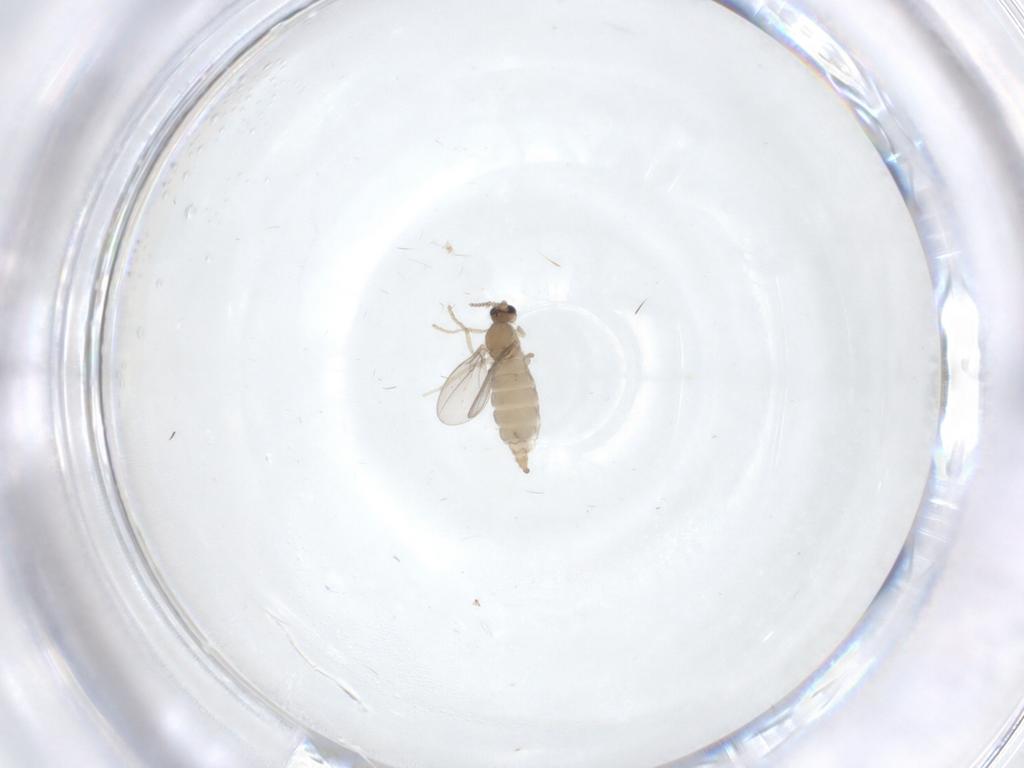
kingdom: Animalia
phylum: Arthropoda
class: Insecta
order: Diptera
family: Cecidomyiidae
